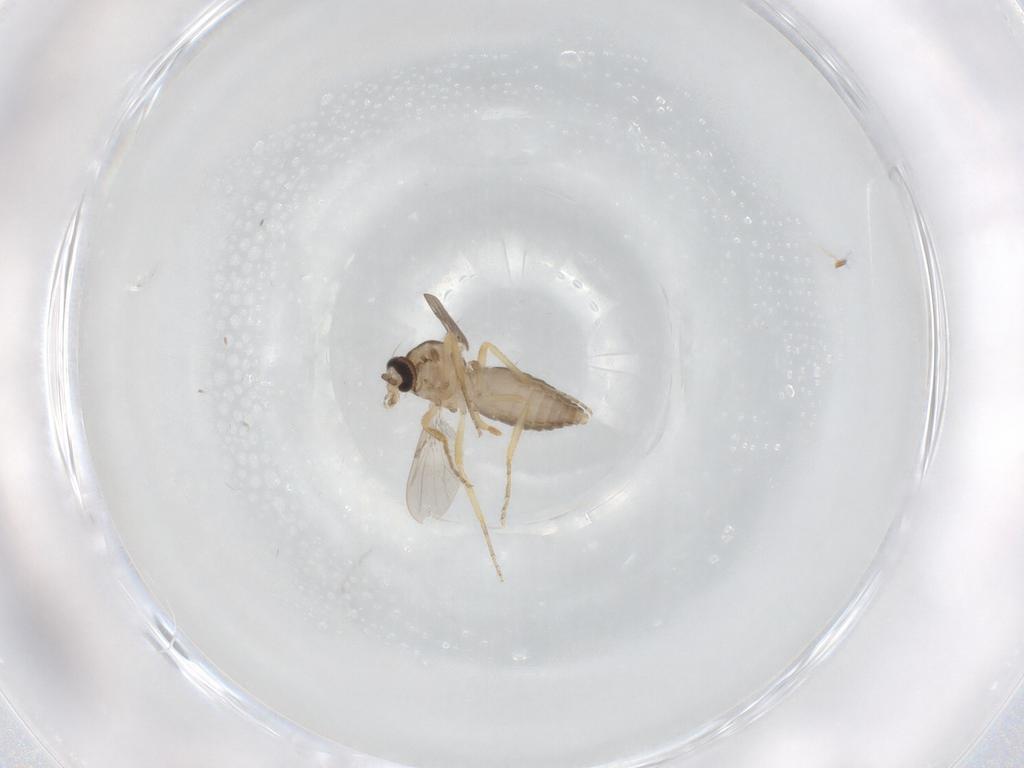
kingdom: Animalia
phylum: Arthropoda
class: Insecta
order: Diptera
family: Ceratopogonidae
